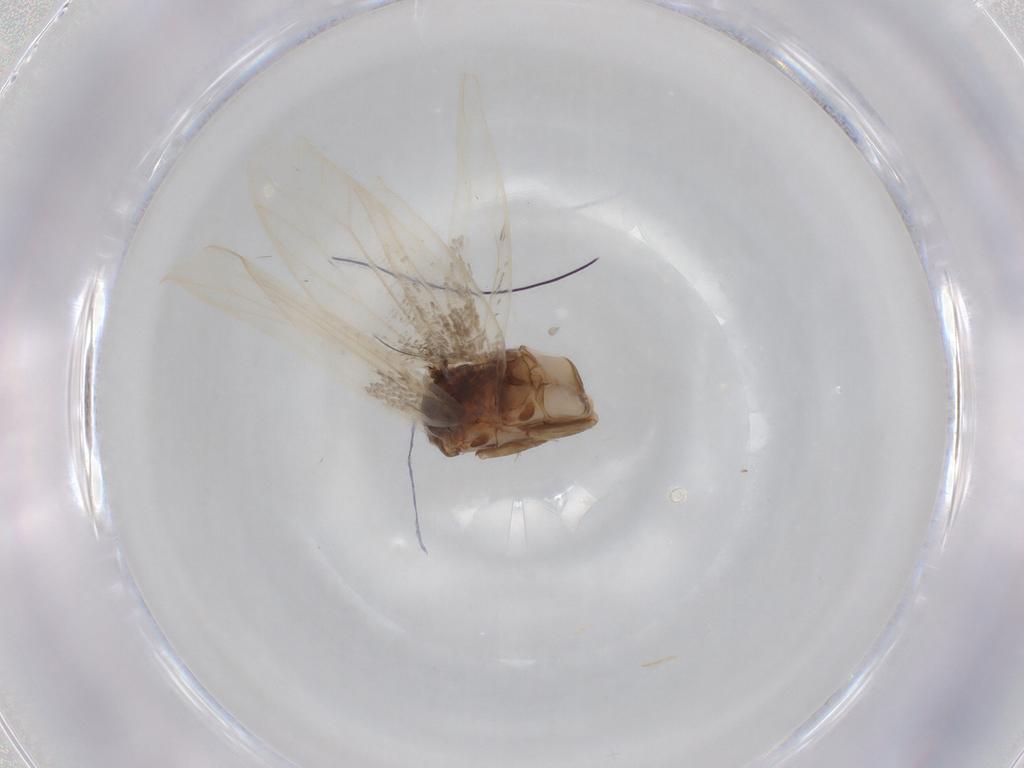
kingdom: Animalia
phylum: Arthropoda
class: Insecta
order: Lepidoptera
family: Elachistidae
